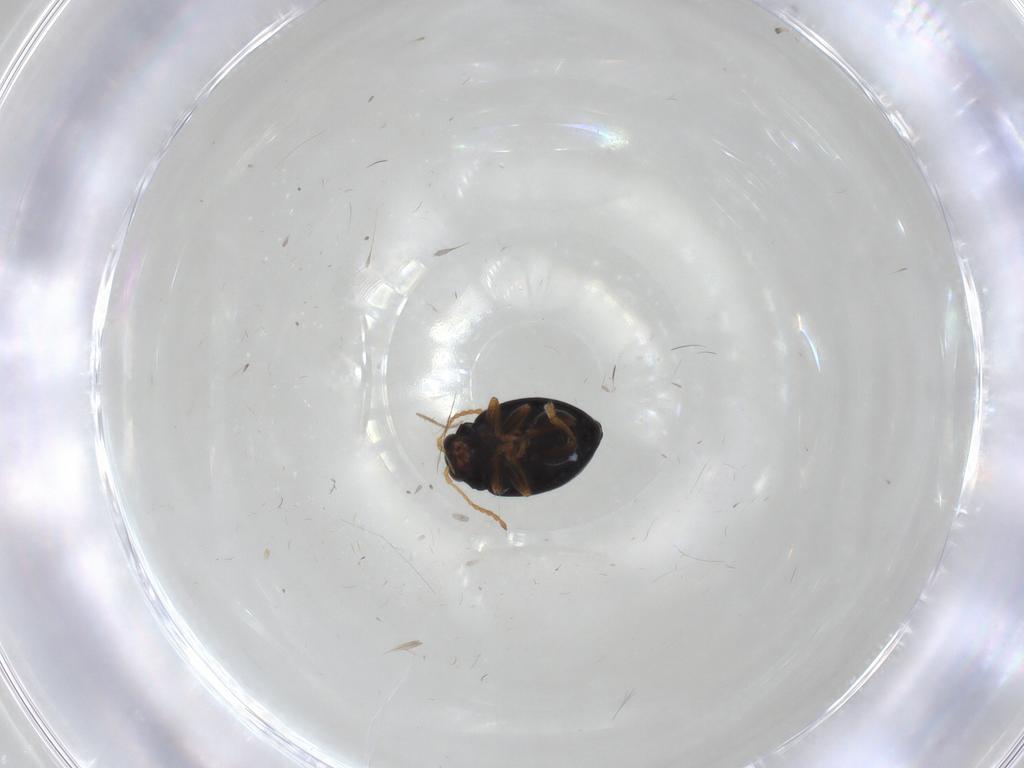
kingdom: Animalia
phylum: Arthropoda
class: Insecta
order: Coleoptera
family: Chrysomelidae
